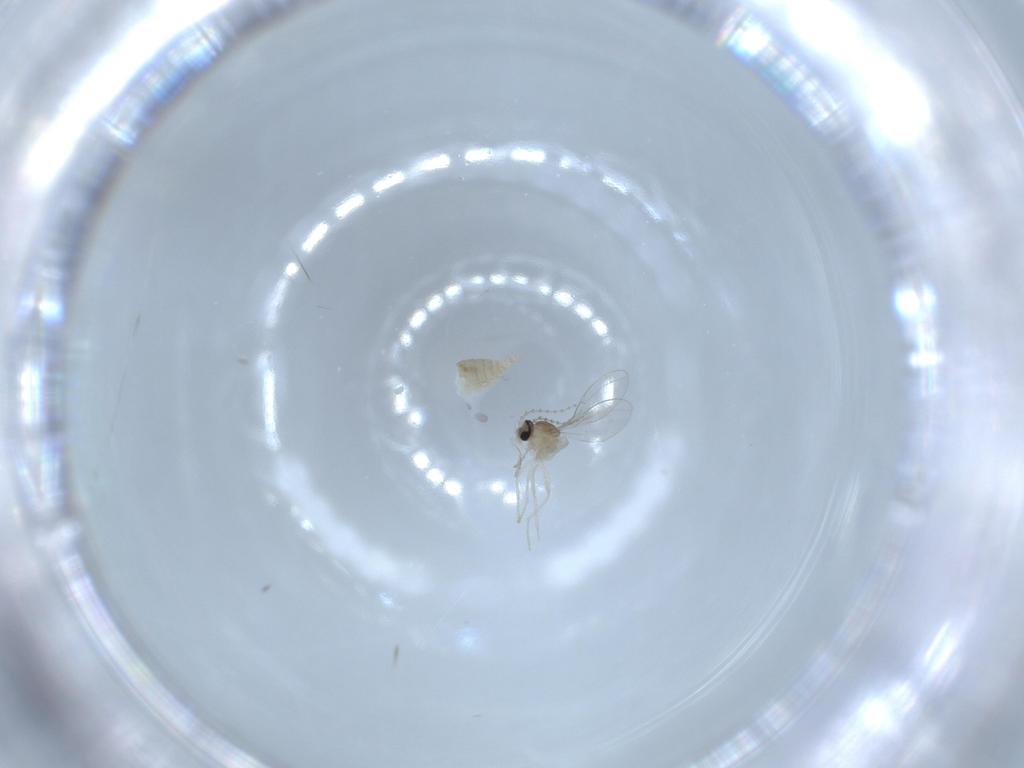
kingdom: Animalia
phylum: Arthropoda
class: Insecta
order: Diptera
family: Cecidomyiidae
